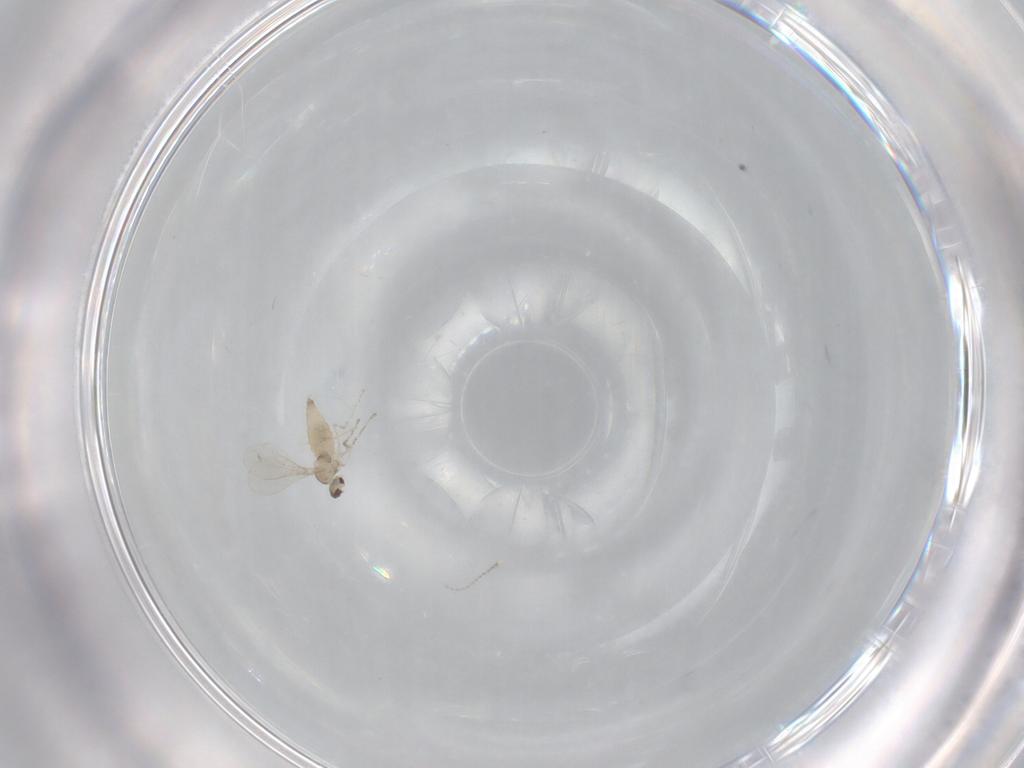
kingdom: Animalia
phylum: Arthropoda
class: Insecta
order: Diptera
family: Cecidomyiidae
